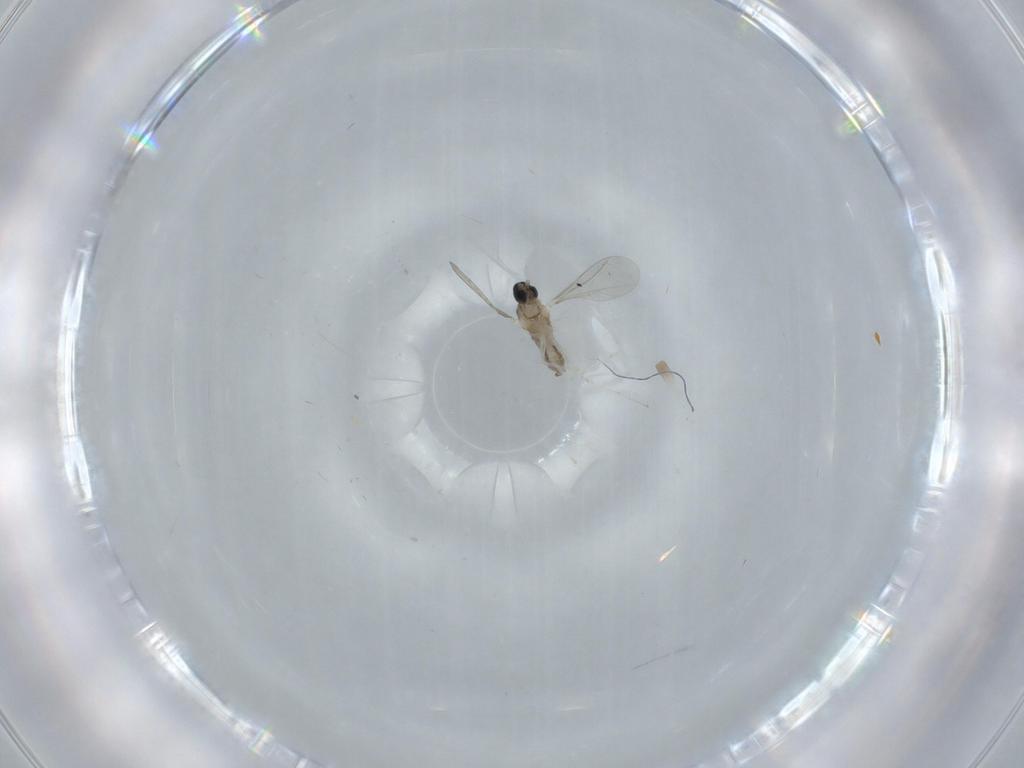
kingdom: Animalia
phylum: Arthropoda
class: Insecta
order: Diptera
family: Cecidomyiidae
